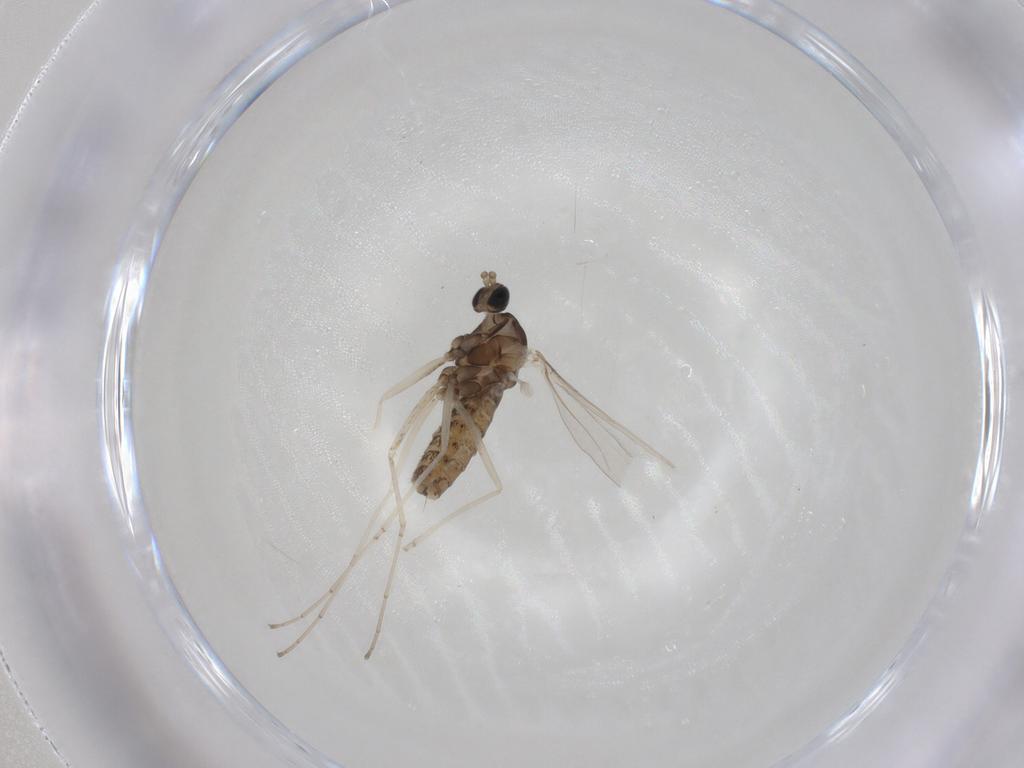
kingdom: Animalia
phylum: Arthropoda
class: Insecta
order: Diptera
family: Cecidomyiidae
